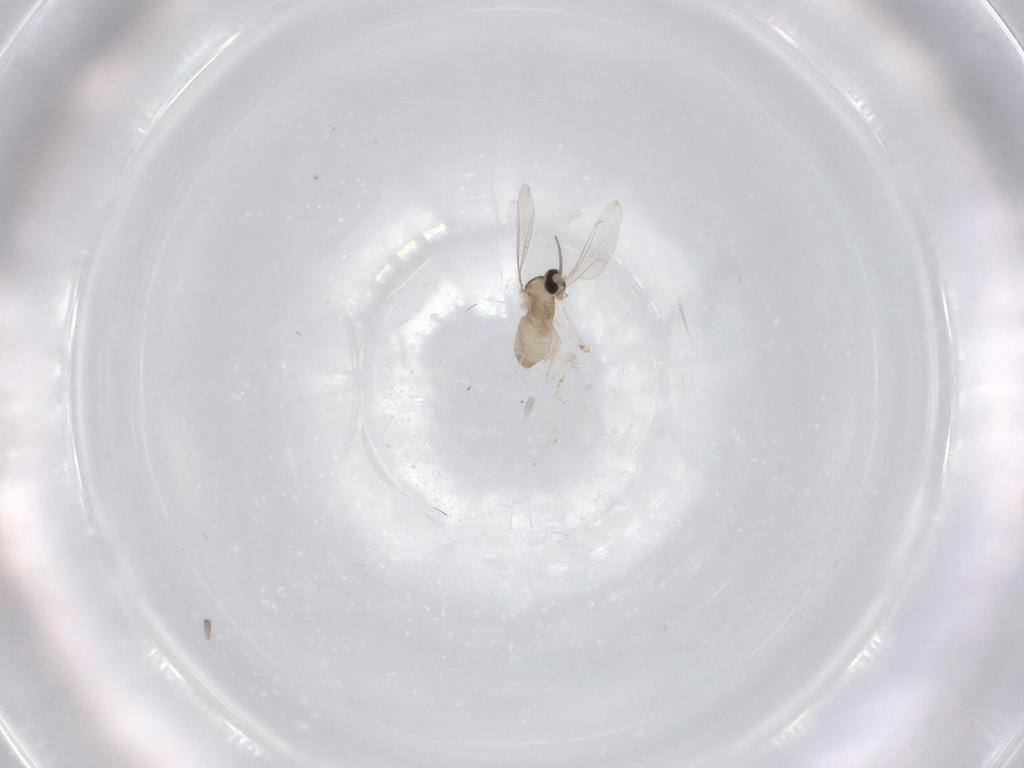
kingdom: Animalia
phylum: Arthropoda
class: Insecta
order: Diptera
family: Cecidomyiidae
